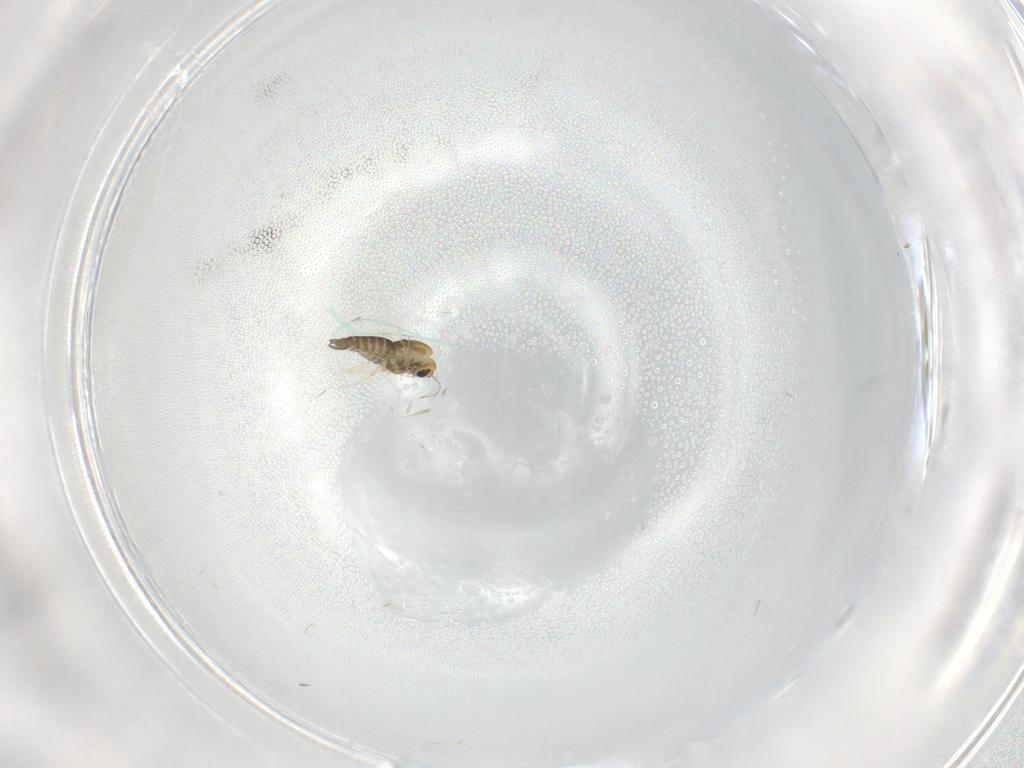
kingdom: Animalia
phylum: Arthropoda
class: Insecta
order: Diptera
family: Chironomidae
